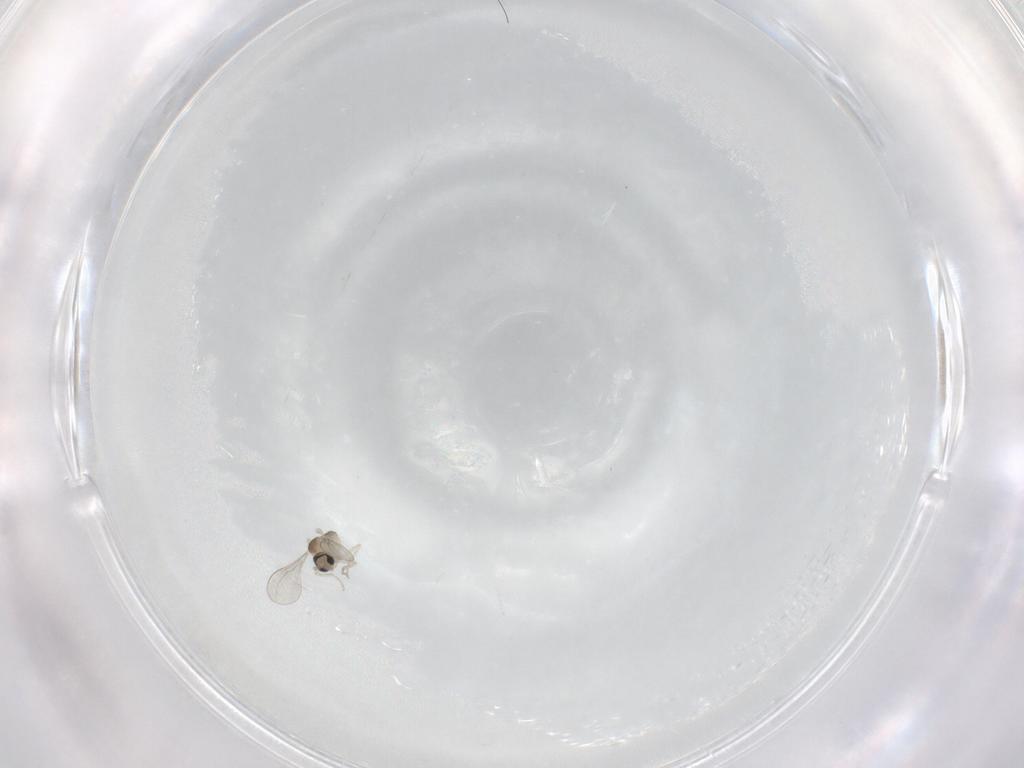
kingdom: Animalia
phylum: Arthropoda
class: Insecta
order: Diptera
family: Cecidomyiidae
